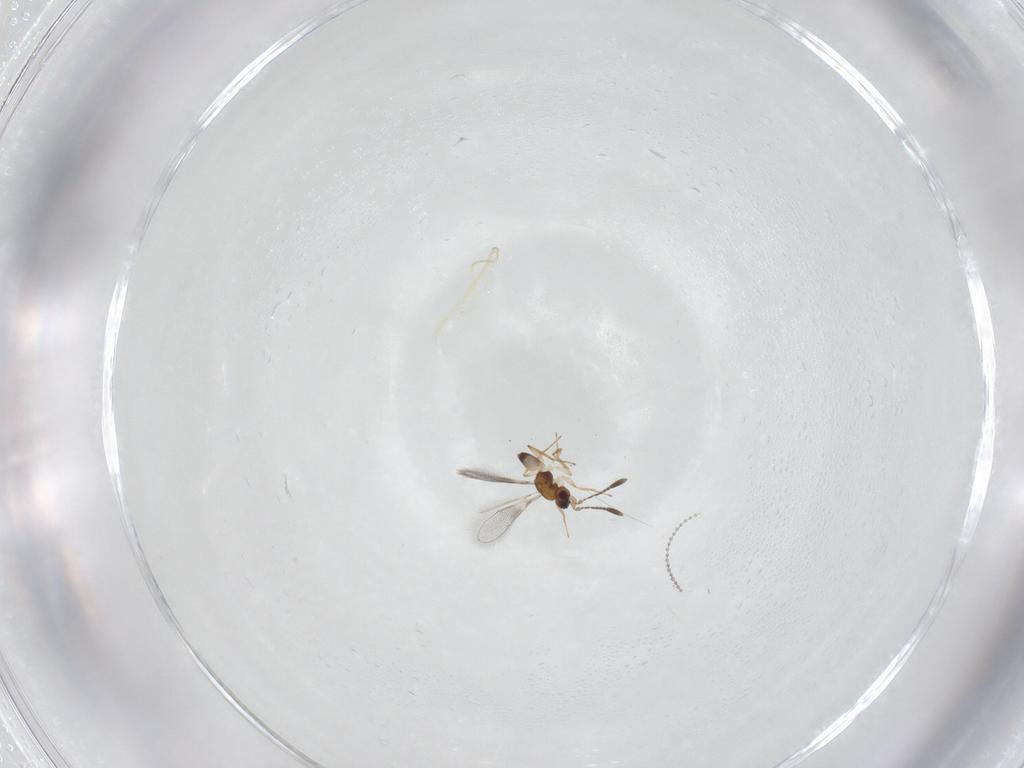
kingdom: Animalia
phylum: Arthropoda
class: Insecta
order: Hymenoptera
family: Mymaridae
